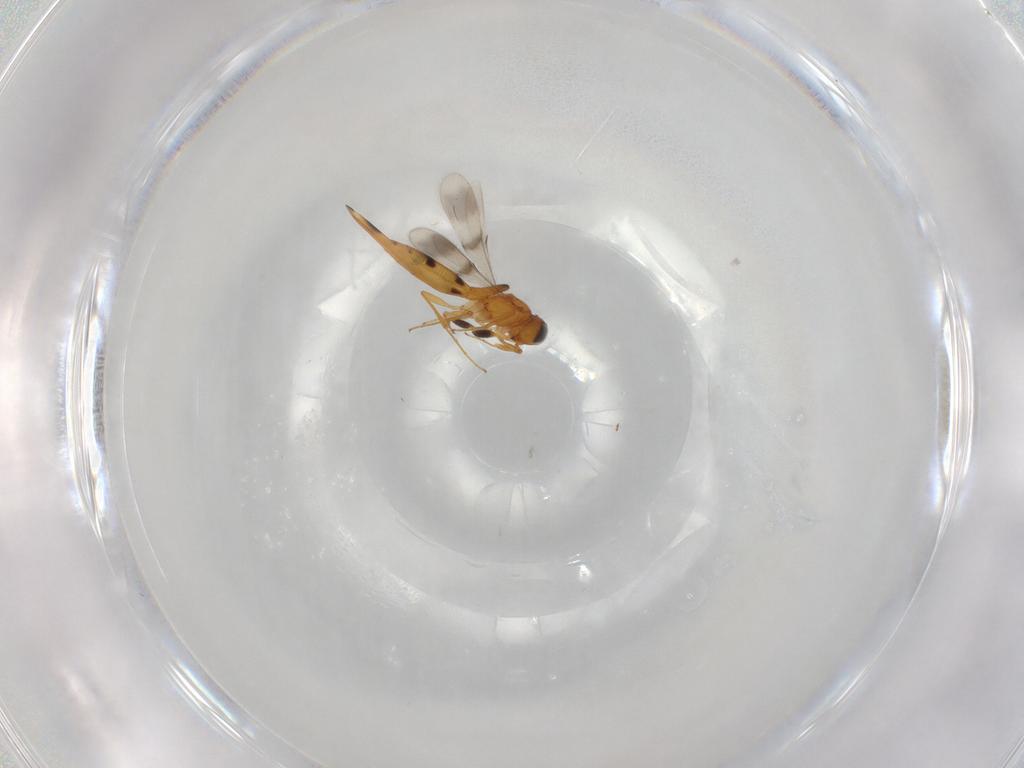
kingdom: Animalia
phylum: Arthropoda
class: Insecta
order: Hymenoptera
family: Scelionidae
